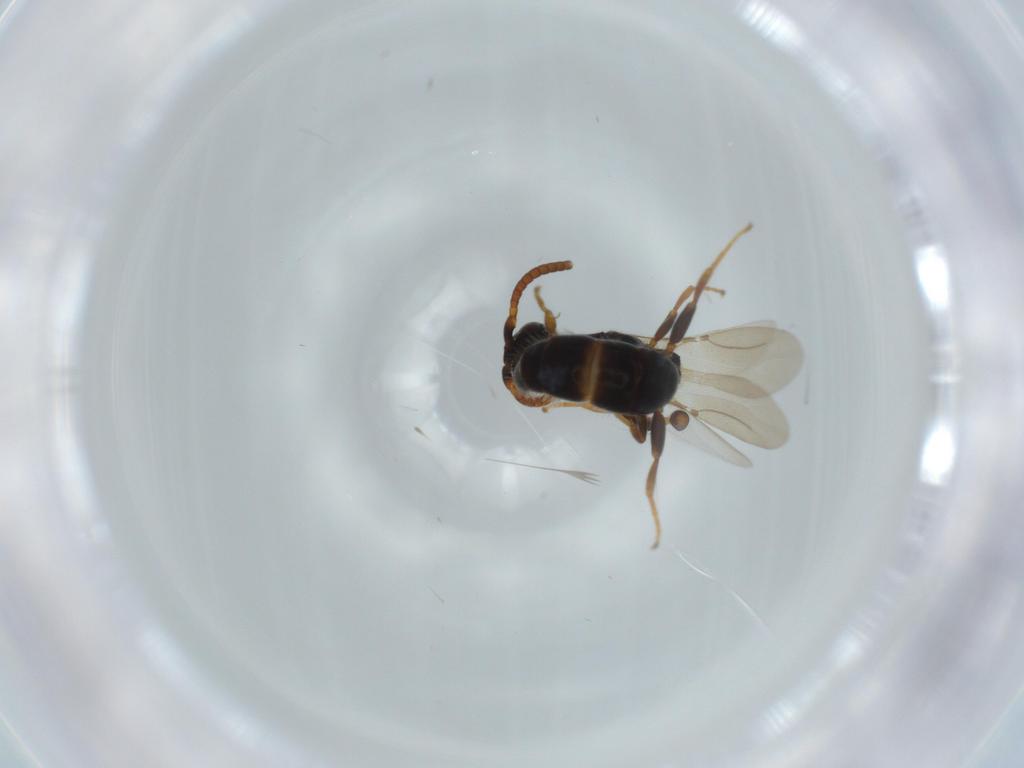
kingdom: Animalia
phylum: Arthropoda
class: Insecta
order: Hymenoptera
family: Bethylidae
